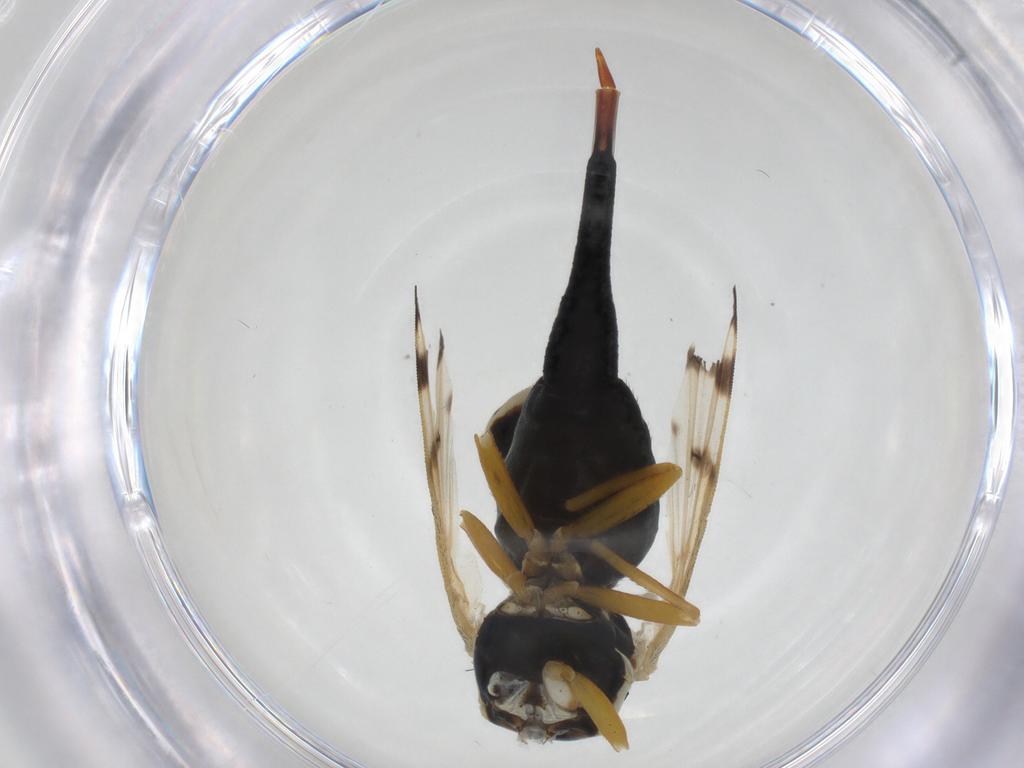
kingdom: Animalia
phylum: Arthropoda
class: Insecta
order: Diptera
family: Tephritidae
